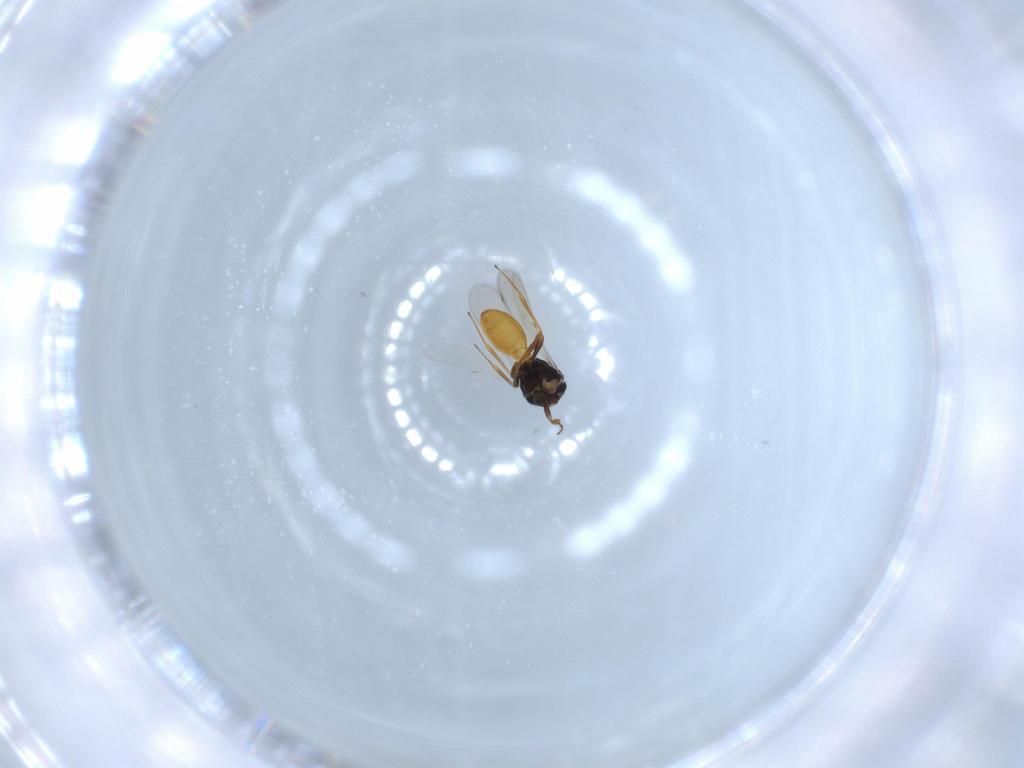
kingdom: Animalia
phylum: Arthropoda
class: Insecta
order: Hymenoptera
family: Scelionidae
